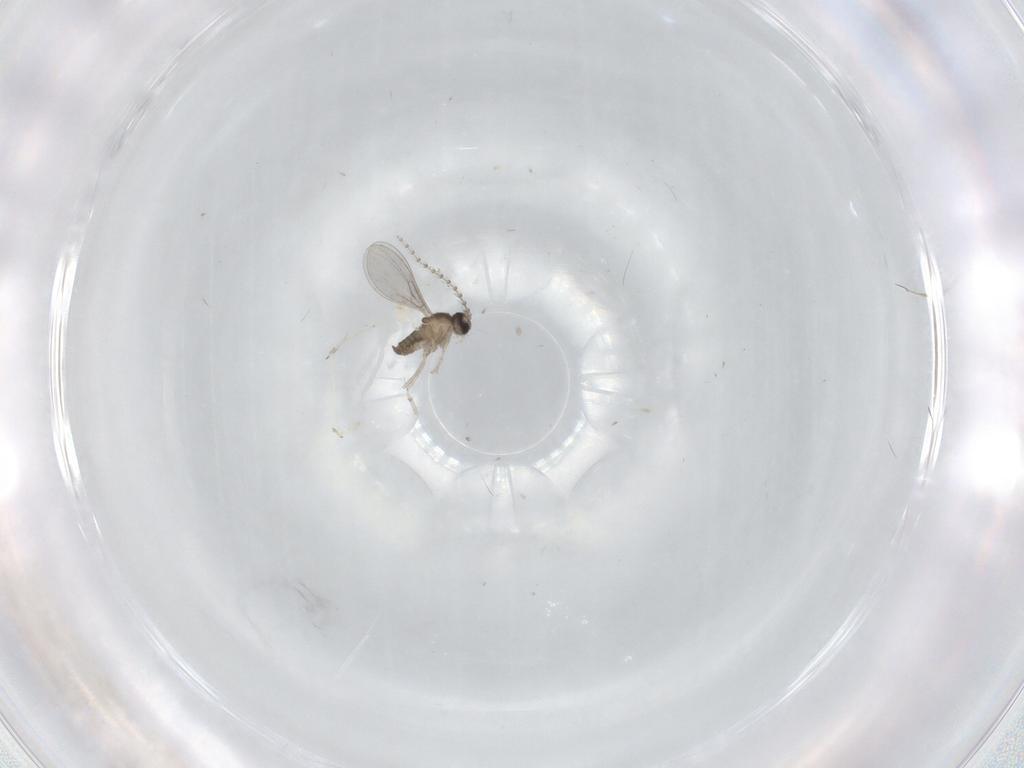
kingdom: Animalia
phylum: Arthropoda
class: Insecta
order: Diptera
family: Cecidomyiidae
